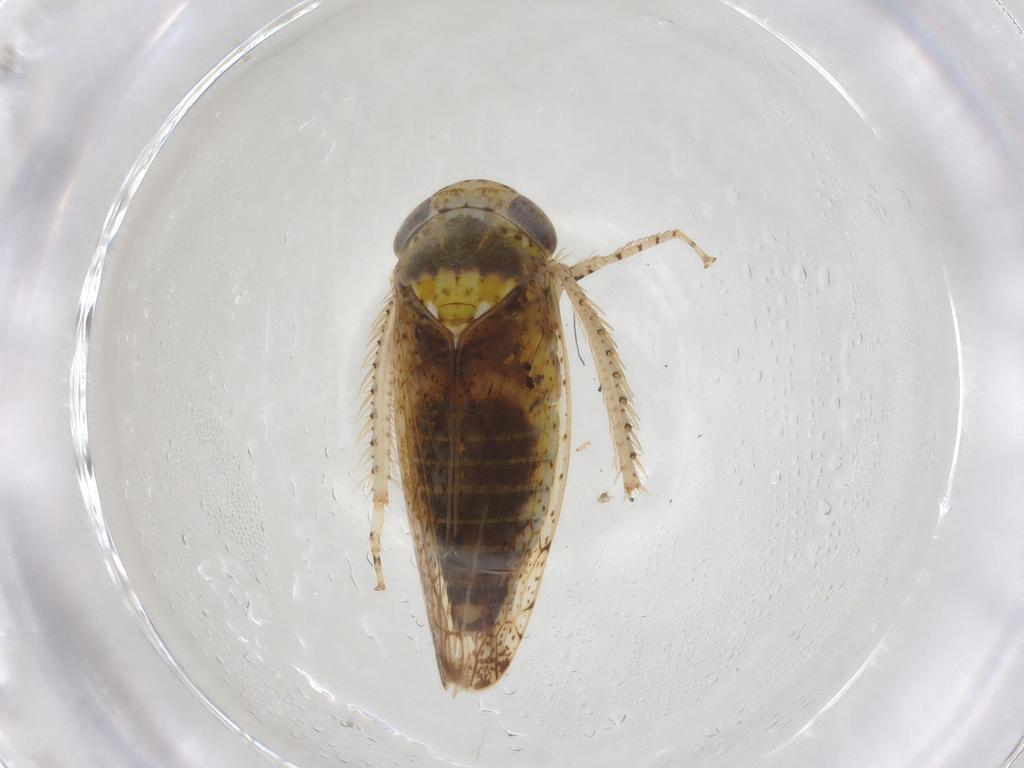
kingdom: Animalia
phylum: Arthropoda
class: Insecta
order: Hemiptera
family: Cicadellidae
